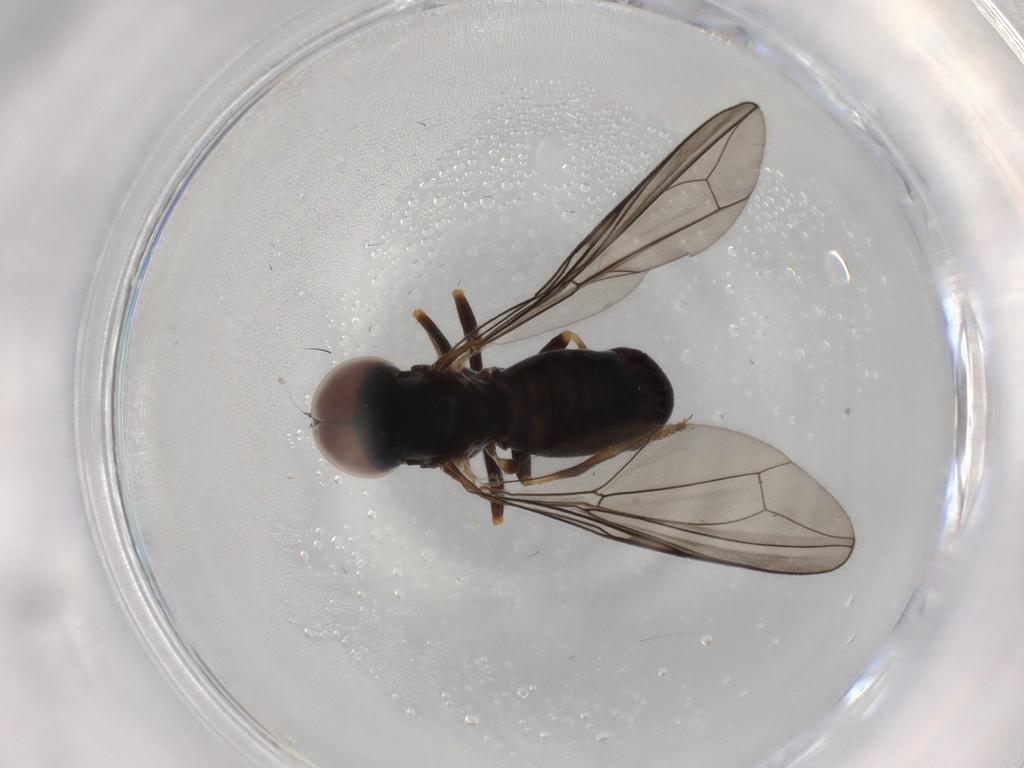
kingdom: Animalia
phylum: Arthropoda
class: Insecta
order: Diptera
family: Pipunculidae
